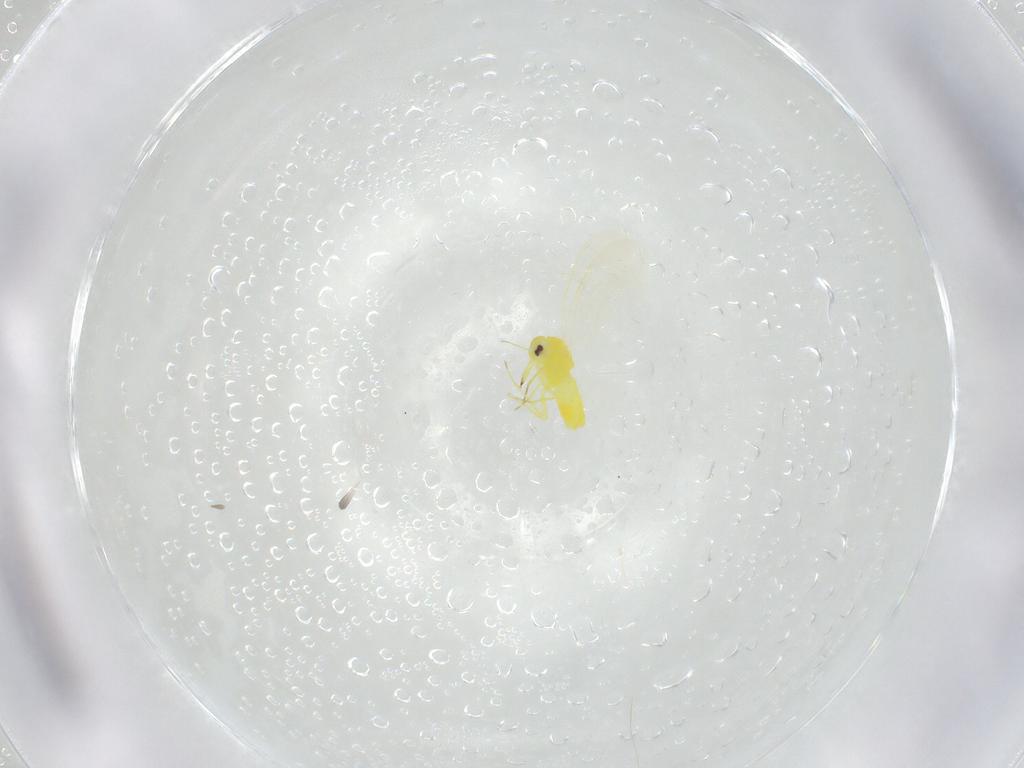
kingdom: Animalia
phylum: Arthropoda
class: Insecta
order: Hemiptera
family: Aleyrodidae
